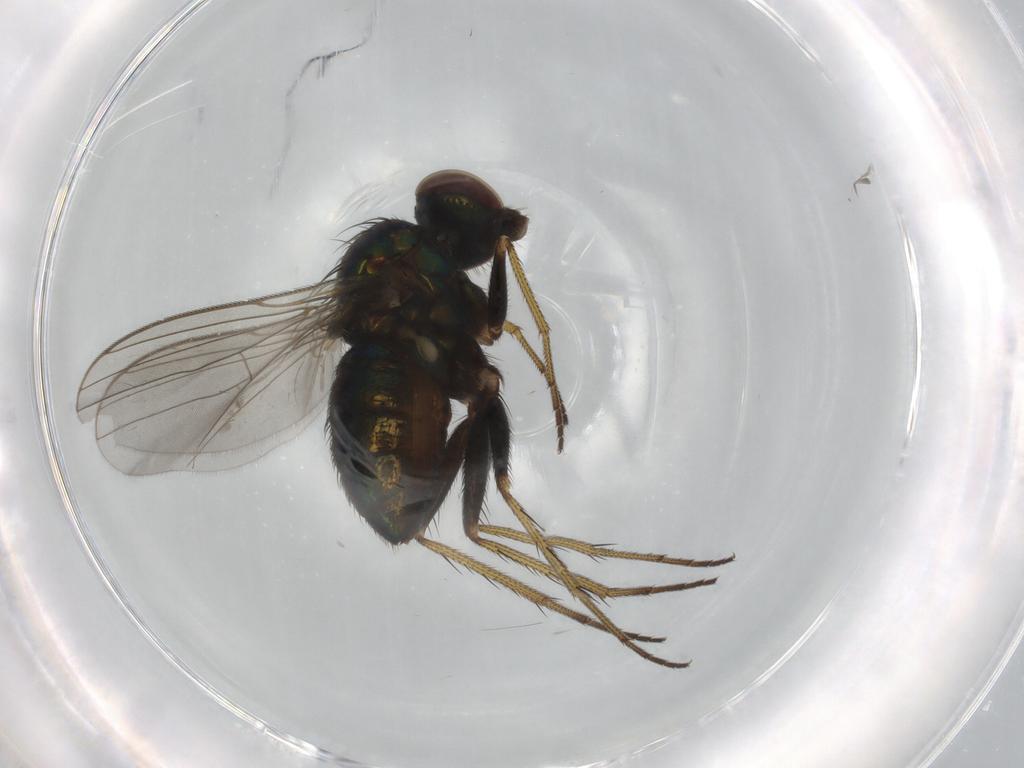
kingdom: Animalia
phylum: Arthropoda
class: Insecta
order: Diptera
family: Dolichopodidae
